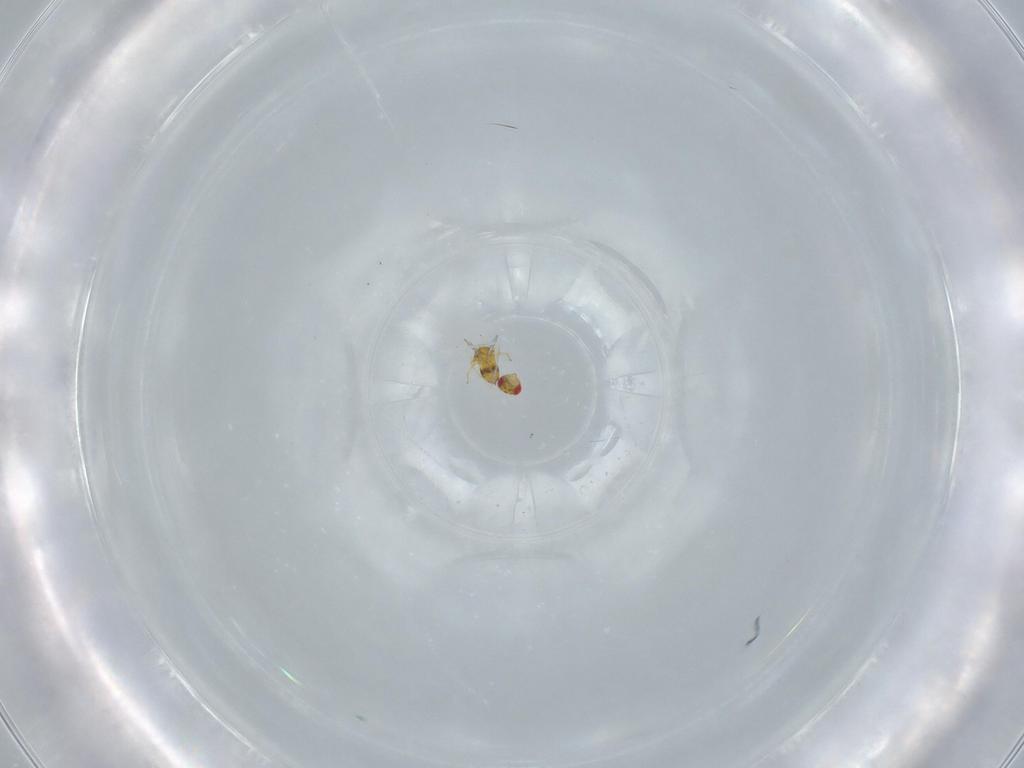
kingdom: Animalia
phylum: Arthropoda
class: Insecta
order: Hymenoptera
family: Trichogrammatidae
